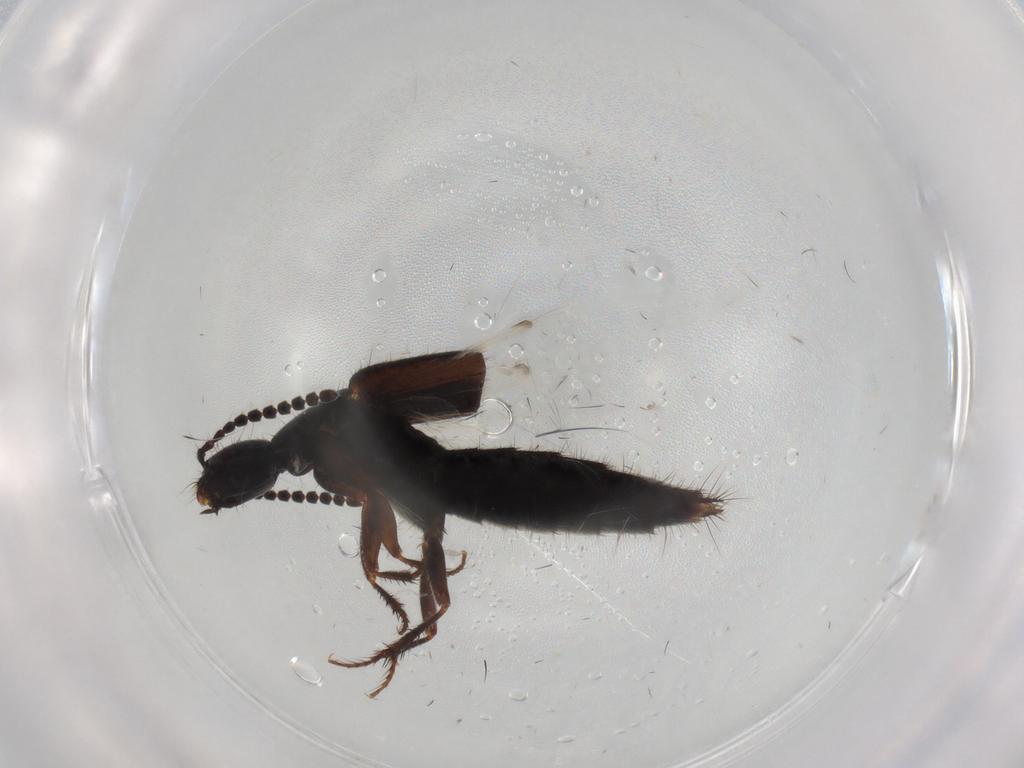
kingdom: Animalia
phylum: Arthropoda
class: Insecta
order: Coleoptera
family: Staphylinidae
